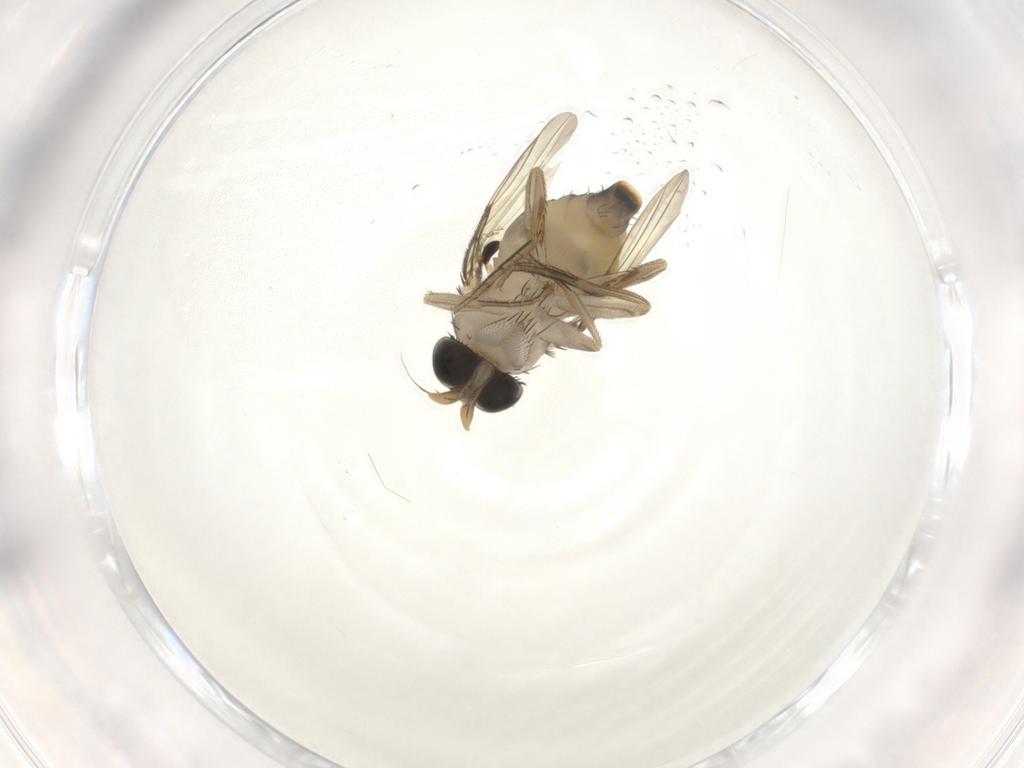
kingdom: Animalia
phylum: Arthropoda
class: Insecta
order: Diptera
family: Phoridae
